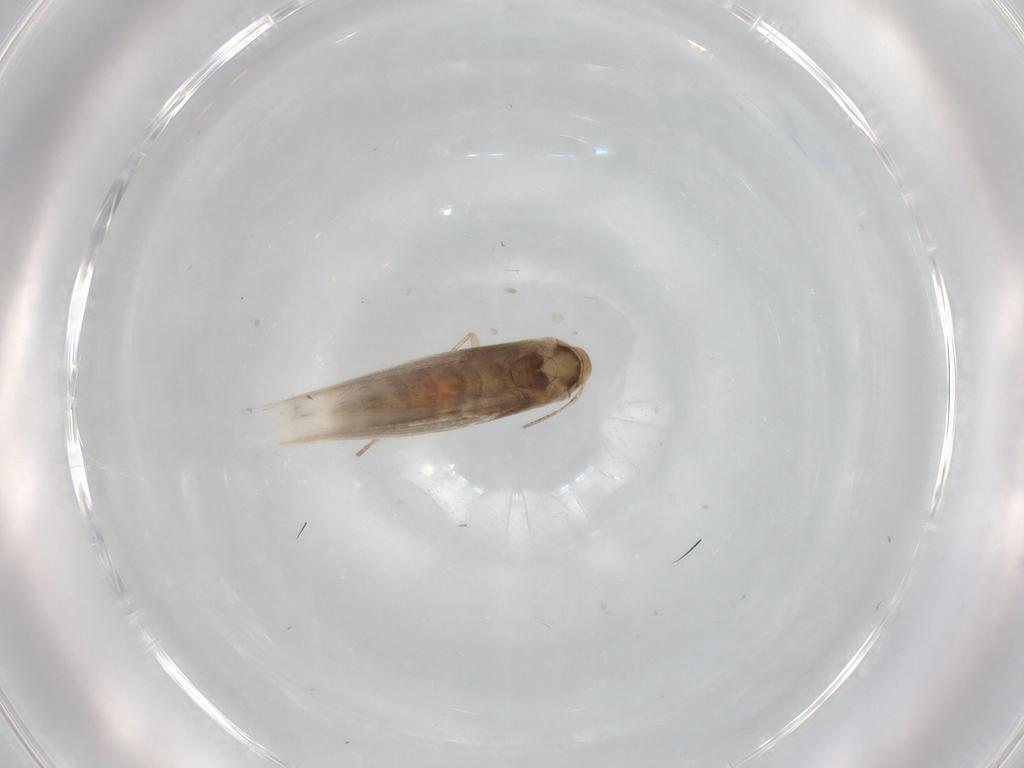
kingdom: Animalia
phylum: Arthropoda
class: Insecta
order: Lepidoptera
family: Gracillariidae
